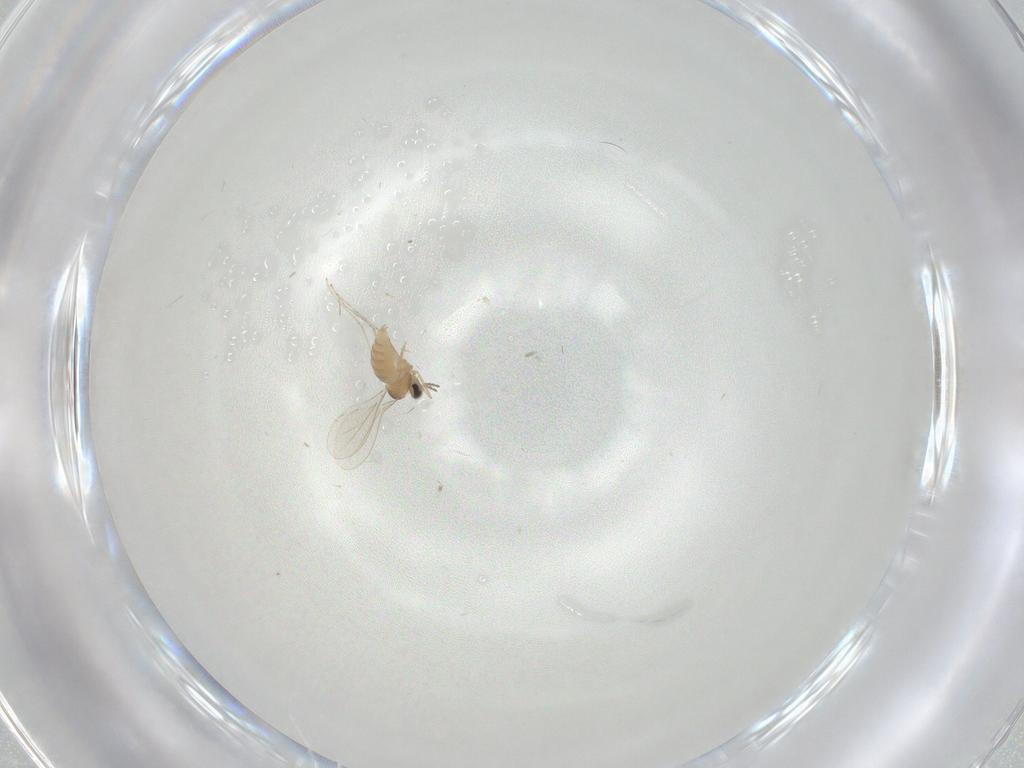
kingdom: Animalia
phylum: Arthropoda
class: Insecta
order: Diptera
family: Cecidomyiidae
